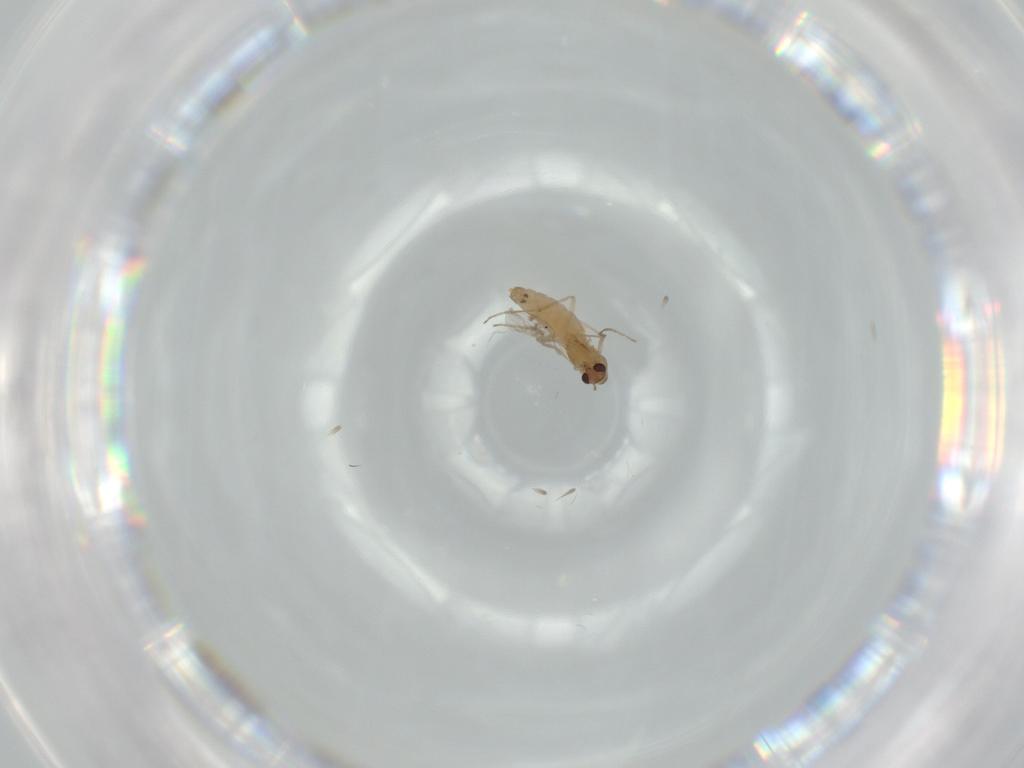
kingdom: Animalia
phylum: Arthropoda
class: Insecta
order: Diptera
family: Chironomidae
